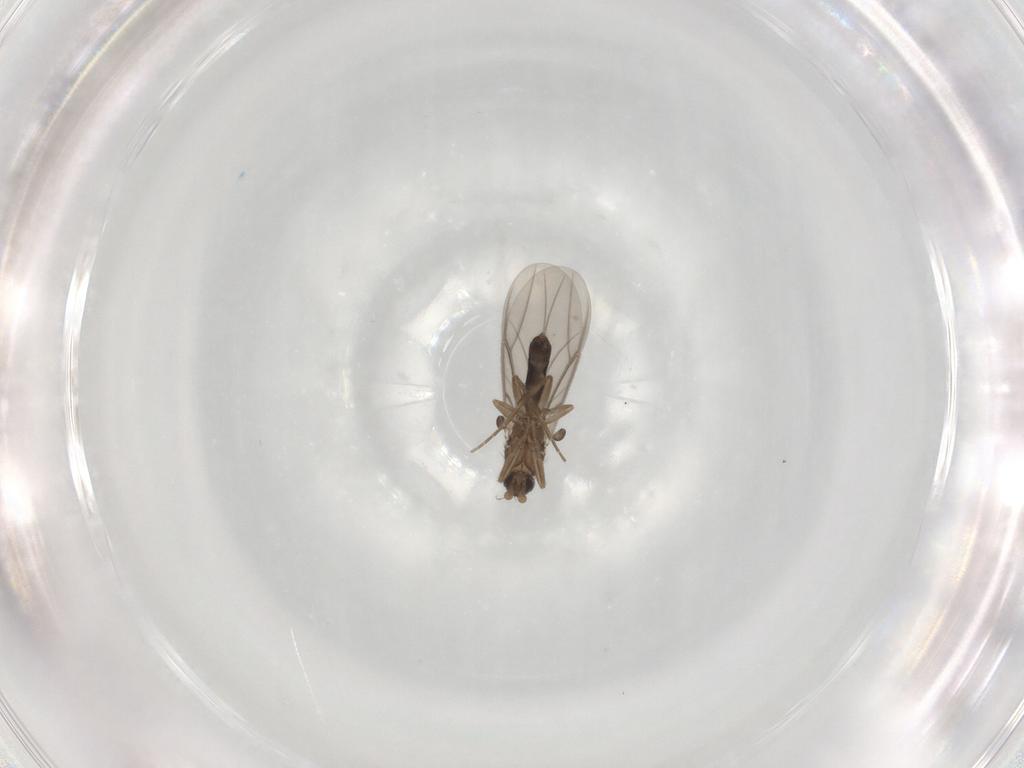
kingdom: Animalia
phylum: Arthropoda
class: Insecta
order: Diptera
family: Phoridae
